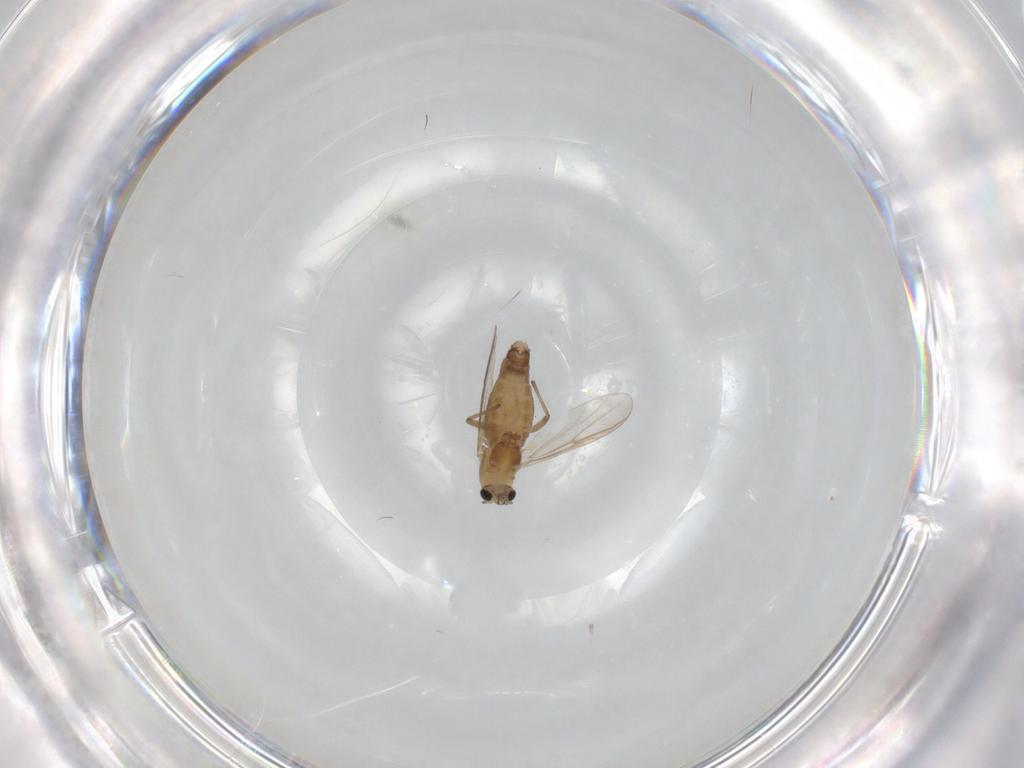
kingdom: Animalia
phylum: Arthropoda
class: Insecta
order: Diptera
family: Chironomidae
